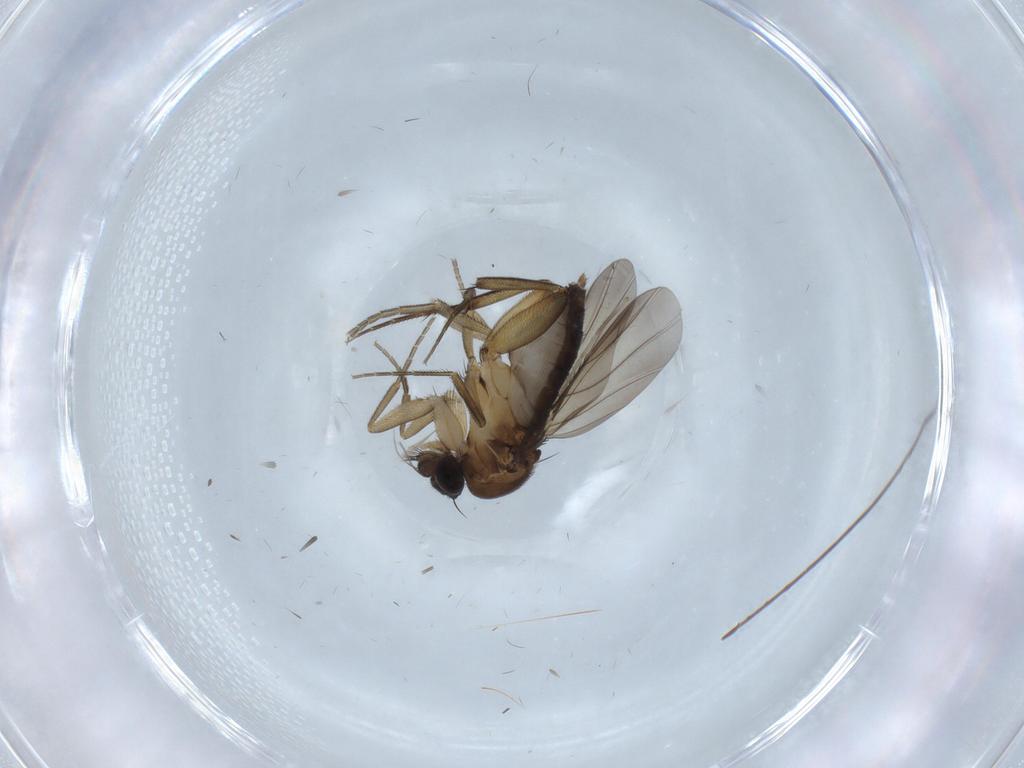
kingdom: Animalia
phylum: Arthropoda
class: Insecta
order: Diptera
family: Phoridae
